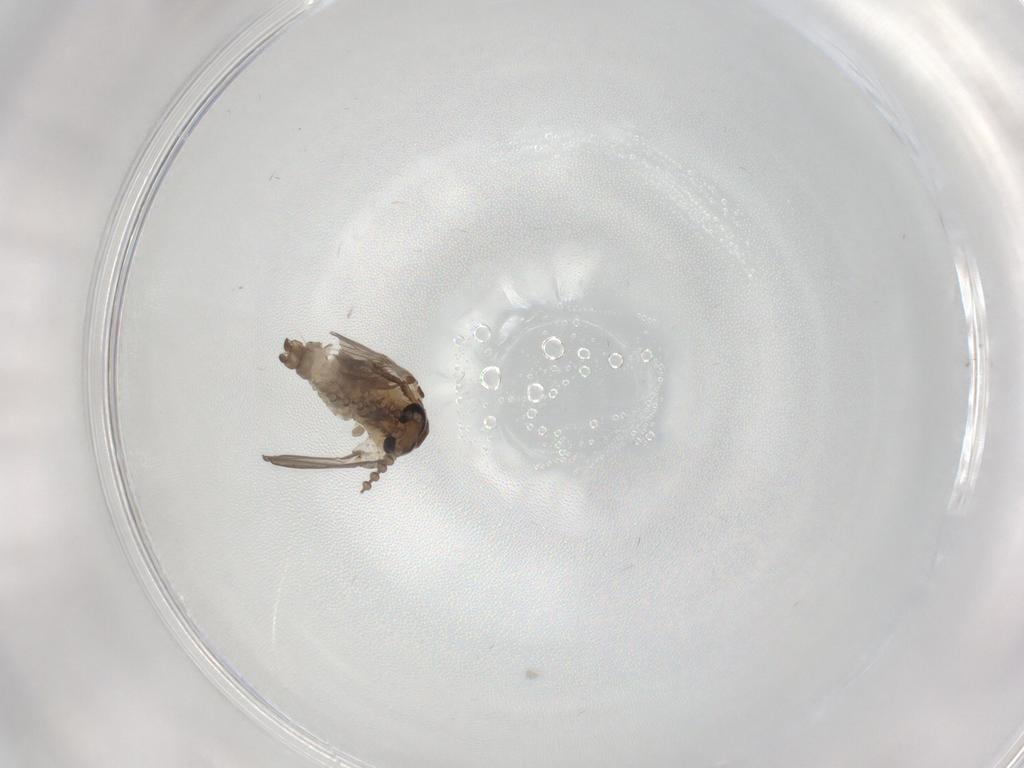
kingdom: Animalia
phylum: Arthropoda
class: Insecta
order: Diptera
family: Psychodidae
